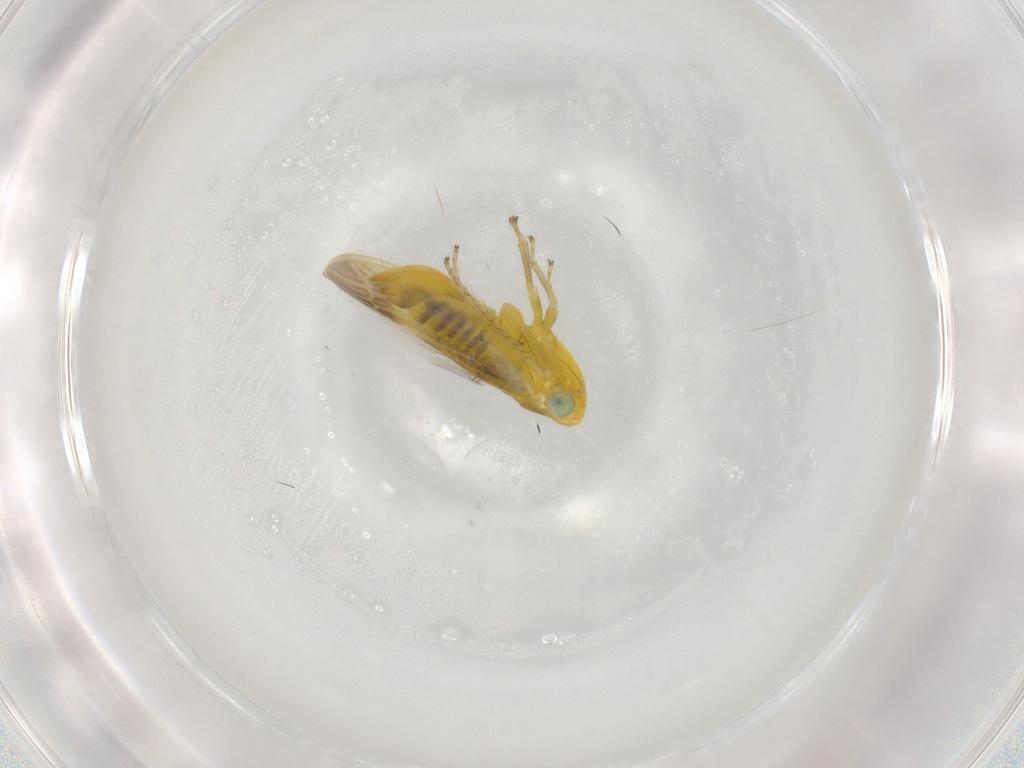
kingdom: Animalia
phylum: Arthropoda
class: Insecta
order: Hemiptera
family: Cicadellidae
